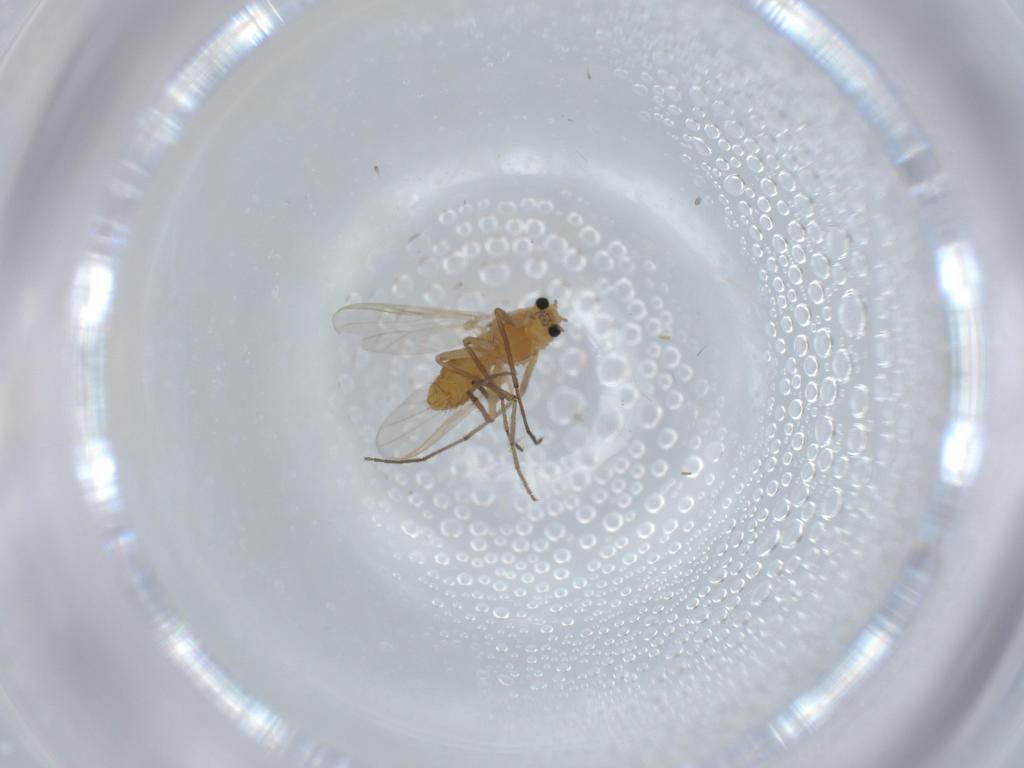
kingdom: Animalia
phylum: Arthropoda
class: Insecta
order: Diptera
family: Chironomidae
